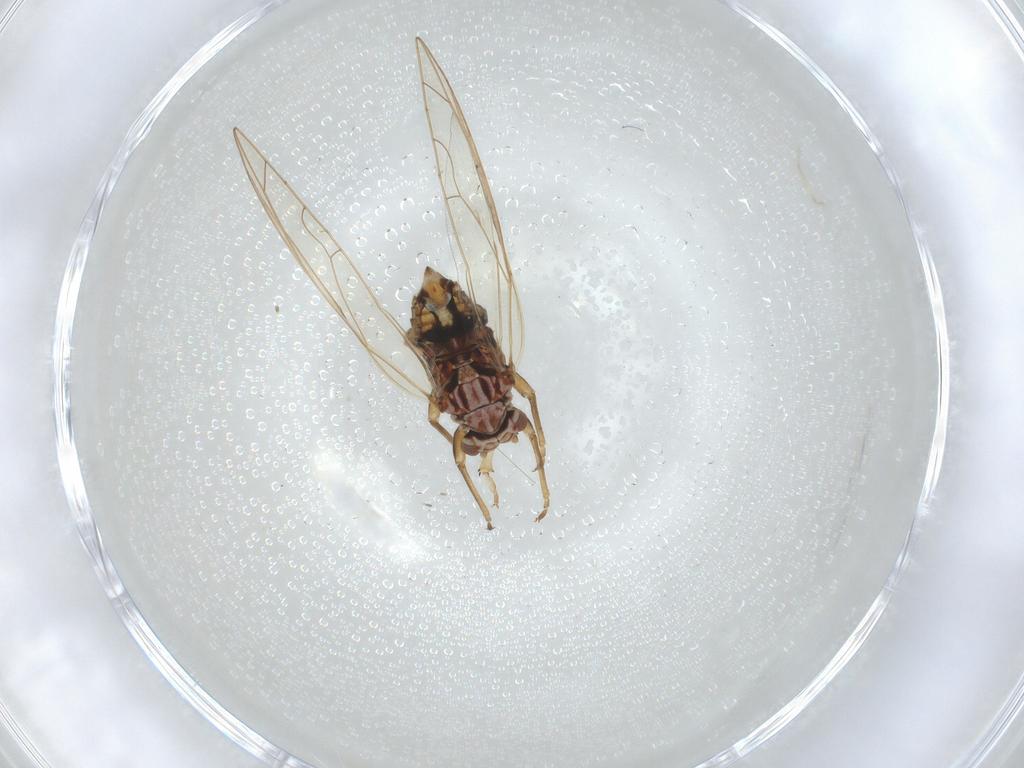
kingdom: Animalia
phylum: Arthropoda
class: Insecta
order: Hemiptera
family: Triozidae
